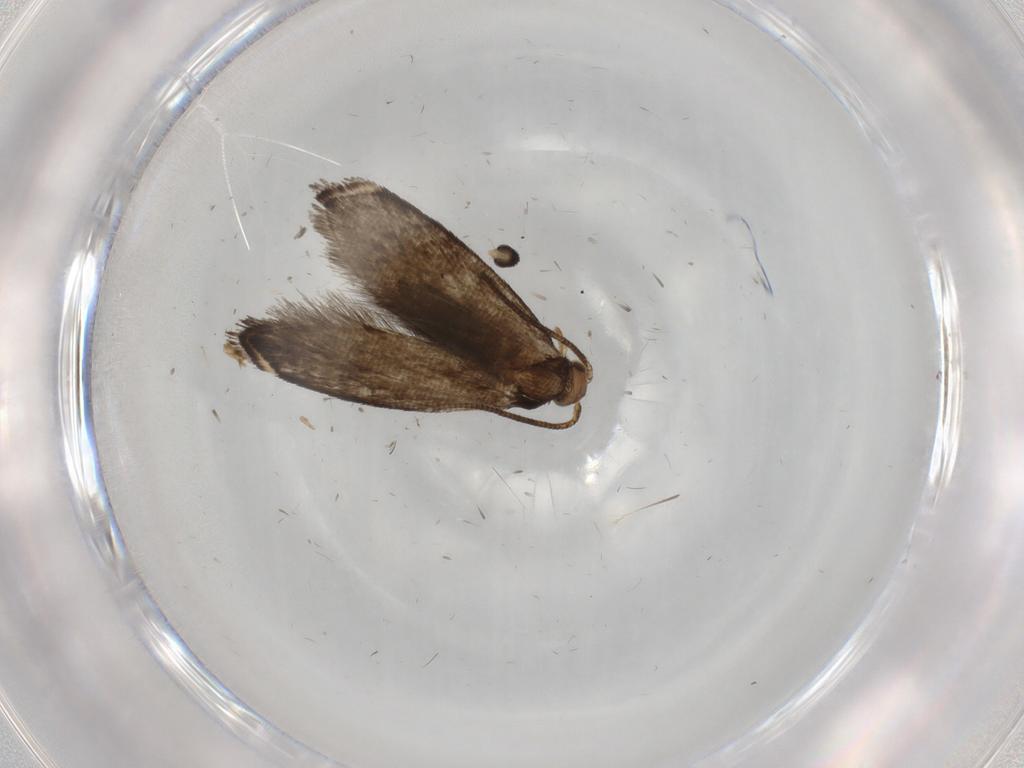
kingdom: Animalia
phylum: Arthropoda
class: Insecta
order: Lepidoptera
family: Tineidae
